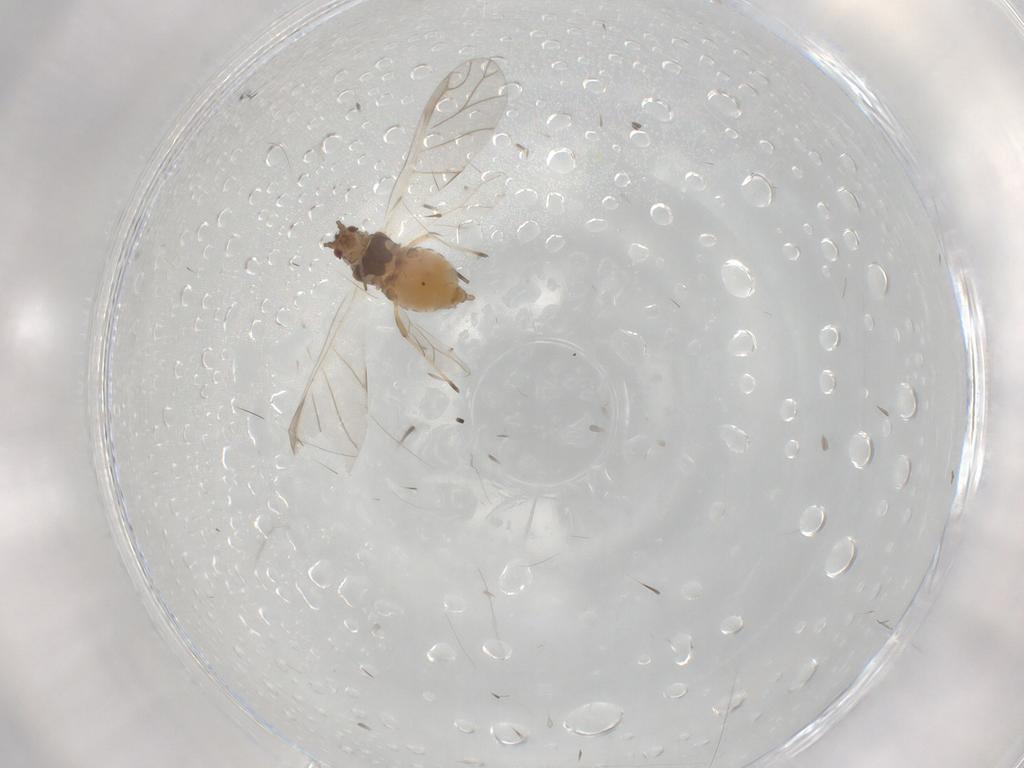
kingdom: Animalia
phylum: Arthropoda
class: Insecta
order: Hemiptera
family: Aphididae
